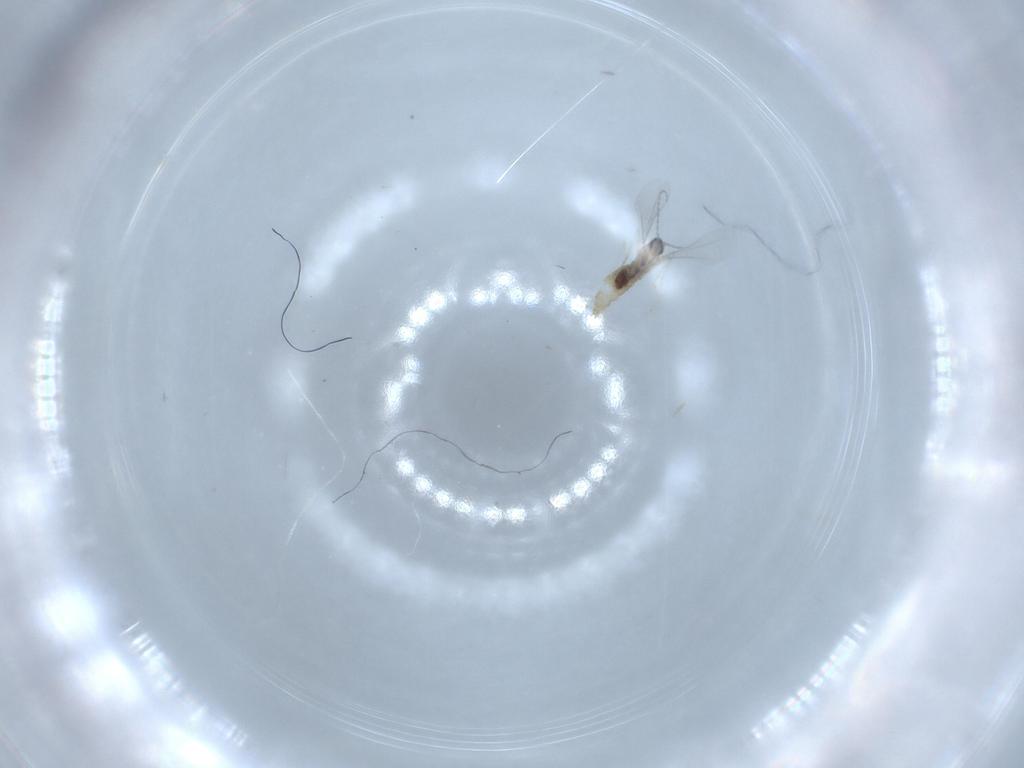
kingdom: Animalia
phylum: Arthropoda
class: Insecta
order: Diptera
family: Cecidomyiidae
